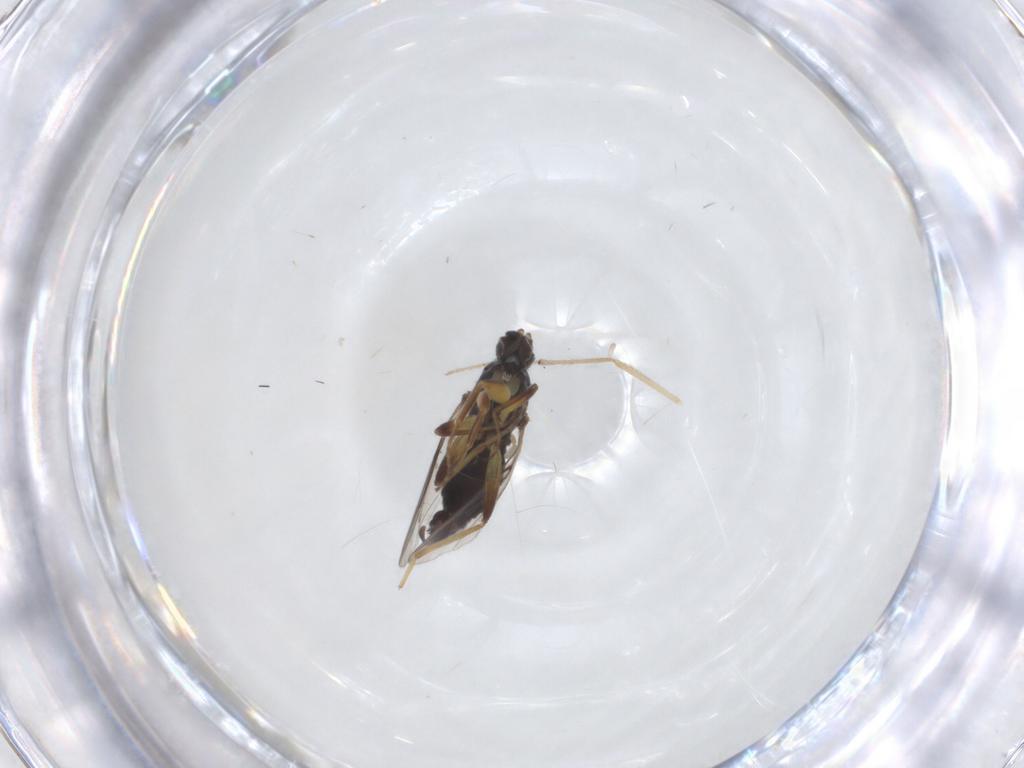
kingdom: Animalia
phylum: Arthropoda
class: Insecta
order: Diptera
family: Hybotidae
